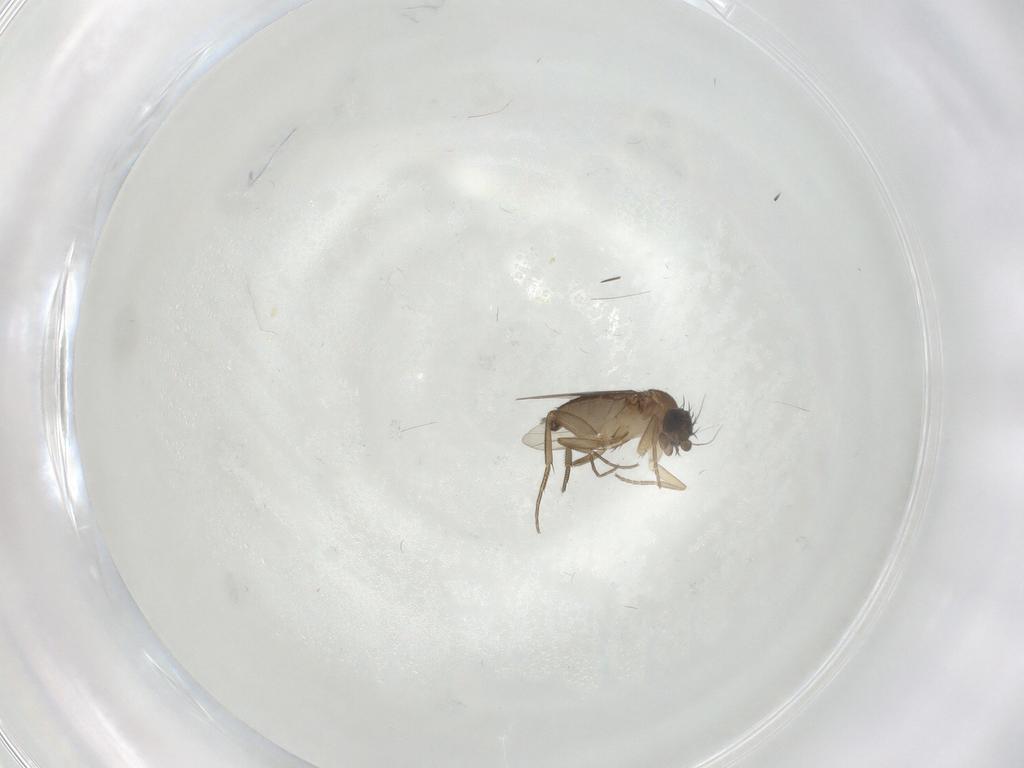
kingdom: Animalia
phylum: Arthropoda
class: Insecta
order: Diptera
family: Phoridae
